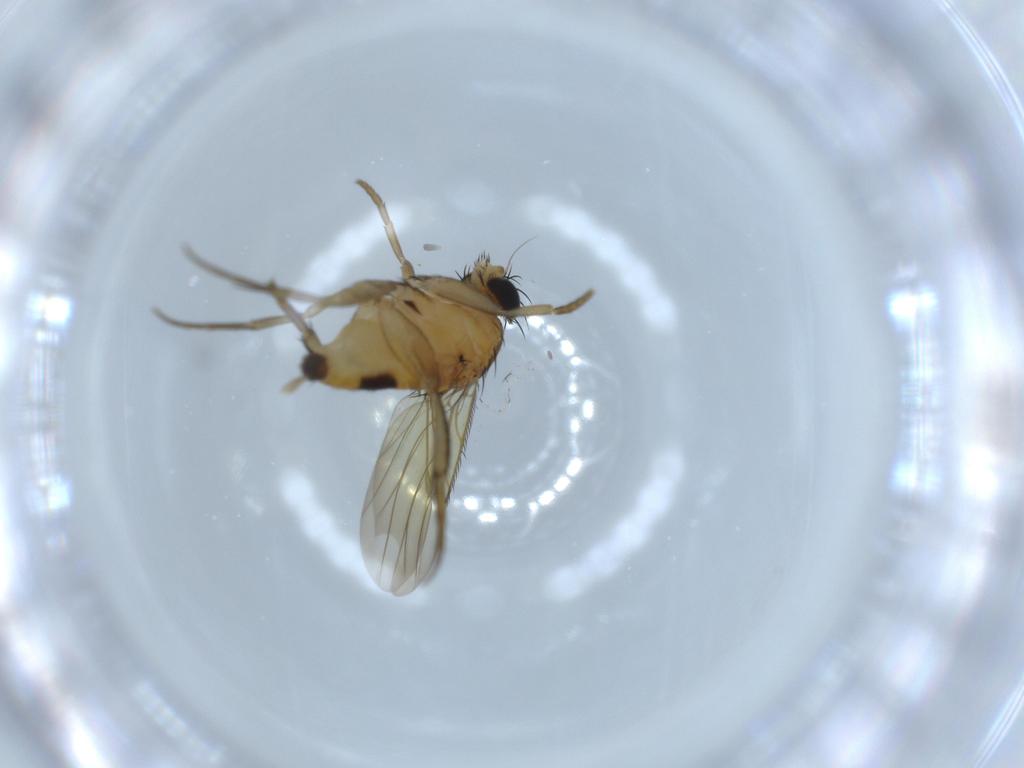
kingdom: Animalia
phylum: Arthropoda
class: Insecta
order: Diptera
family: Phoridae
